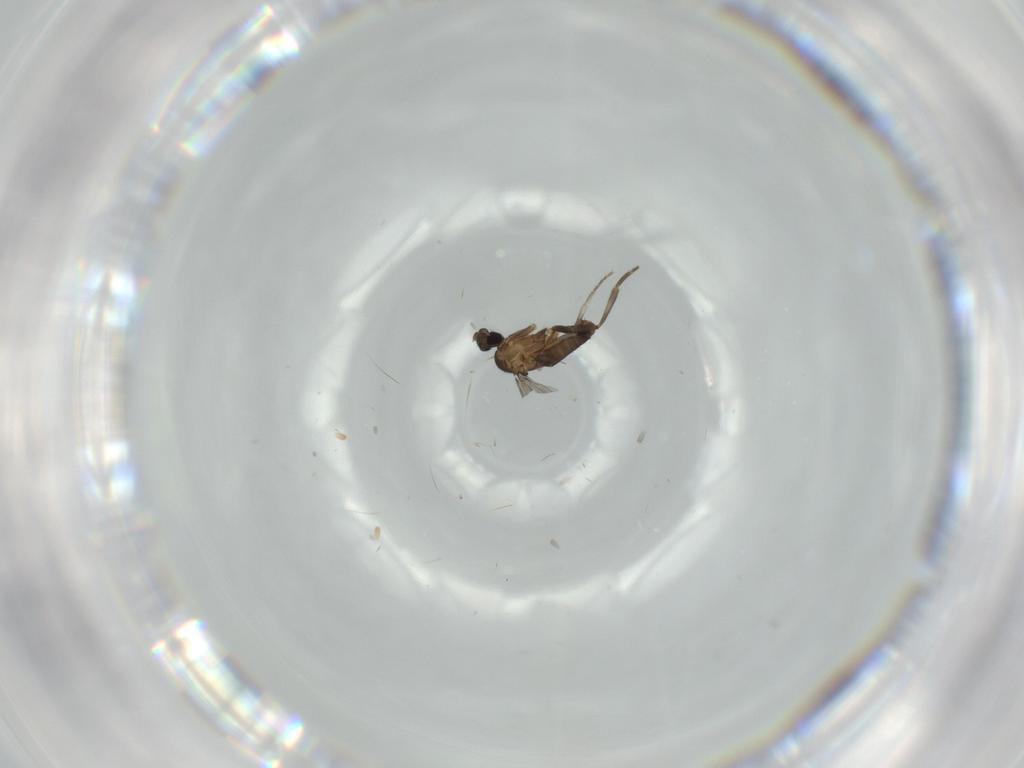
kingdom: Animalia
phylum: Arthropoda
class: Insecta
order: Diptera
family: Phoridae
